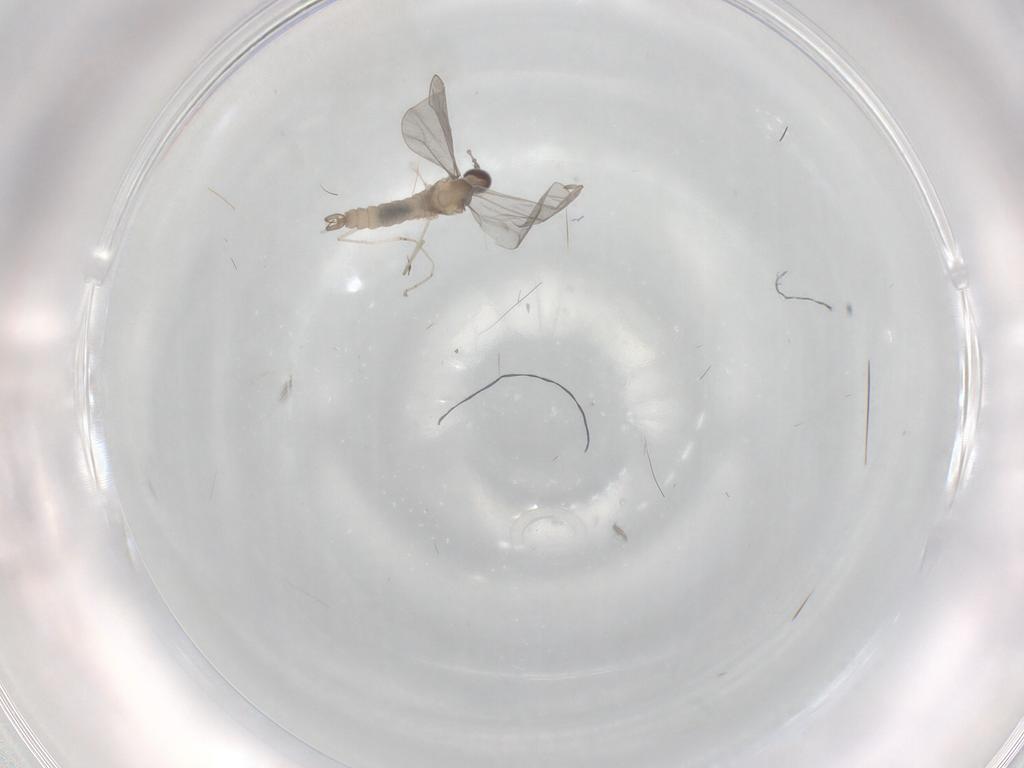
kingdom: Animalia
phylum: Arthropoda
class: Insecta
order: Diptera
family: Cecidomyiidae
